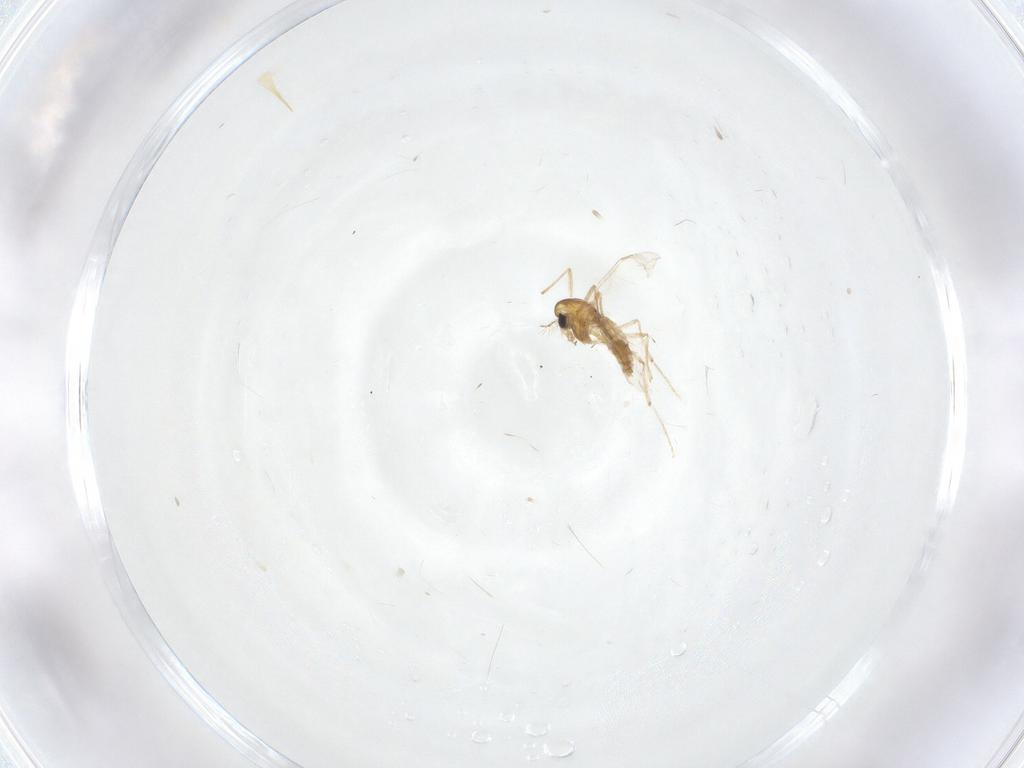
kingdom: Animalia
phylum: Arthropoda
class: Insecta
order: Diptera
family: Chironomidae
